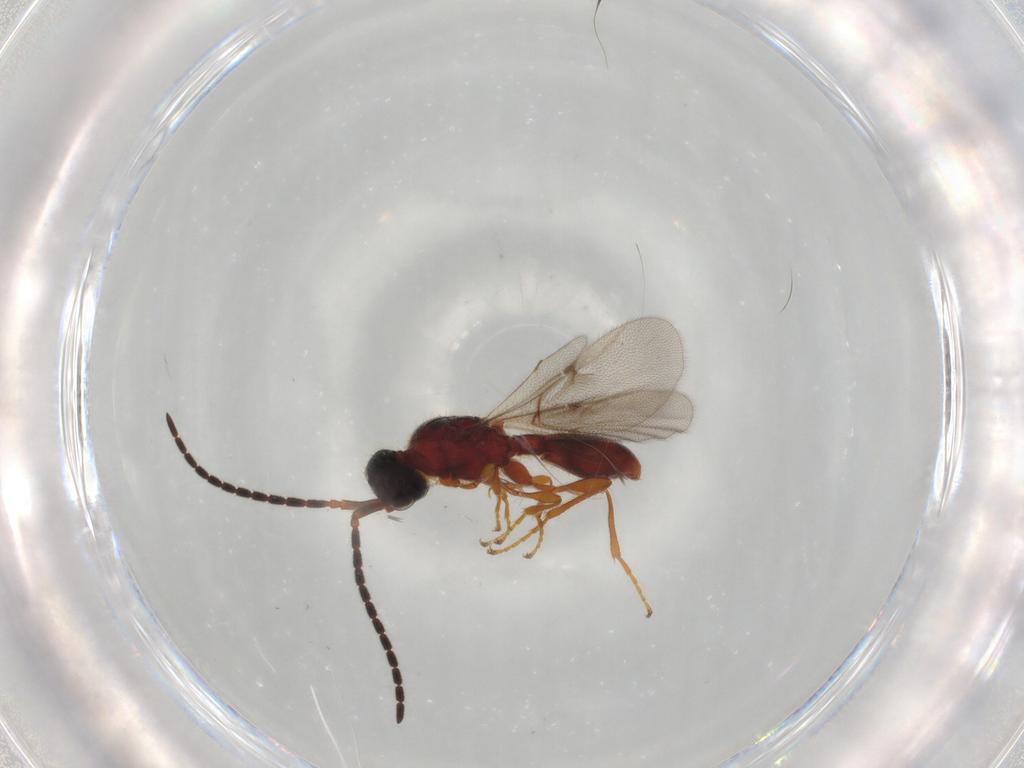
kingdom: Animalia
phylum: Arthropoda
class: Insecta
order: Hymenoptera
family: Diapriidae
